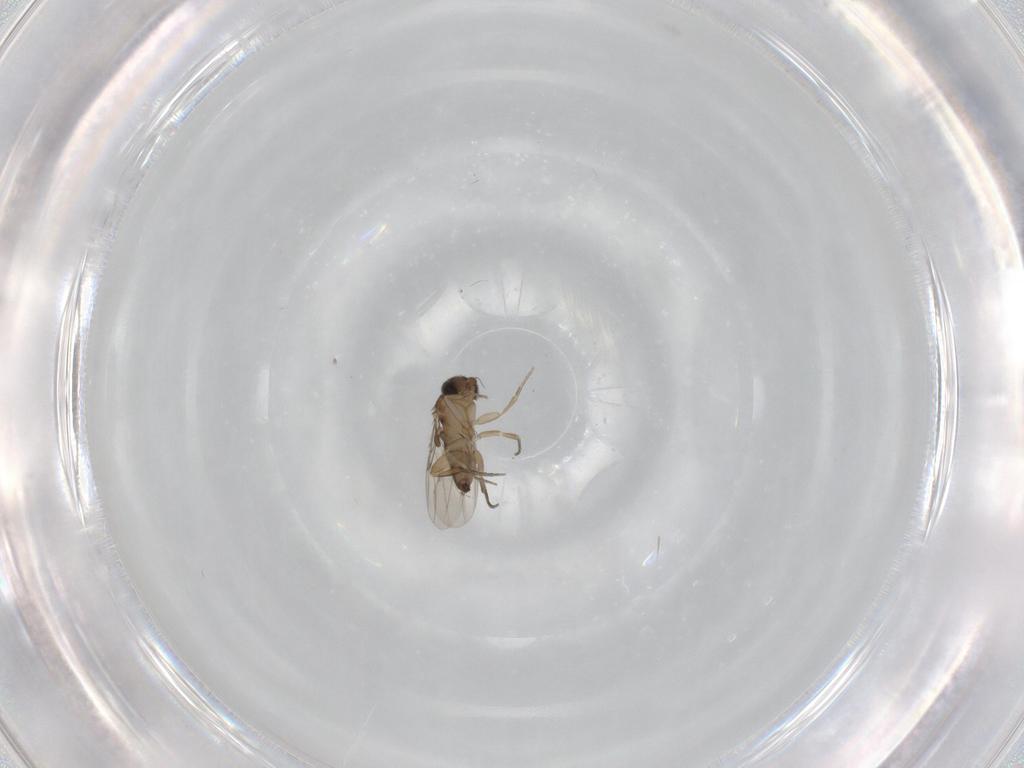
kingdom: Animalia
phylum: Arthropoda
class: Insecta
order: Diptera
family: Phoridae
